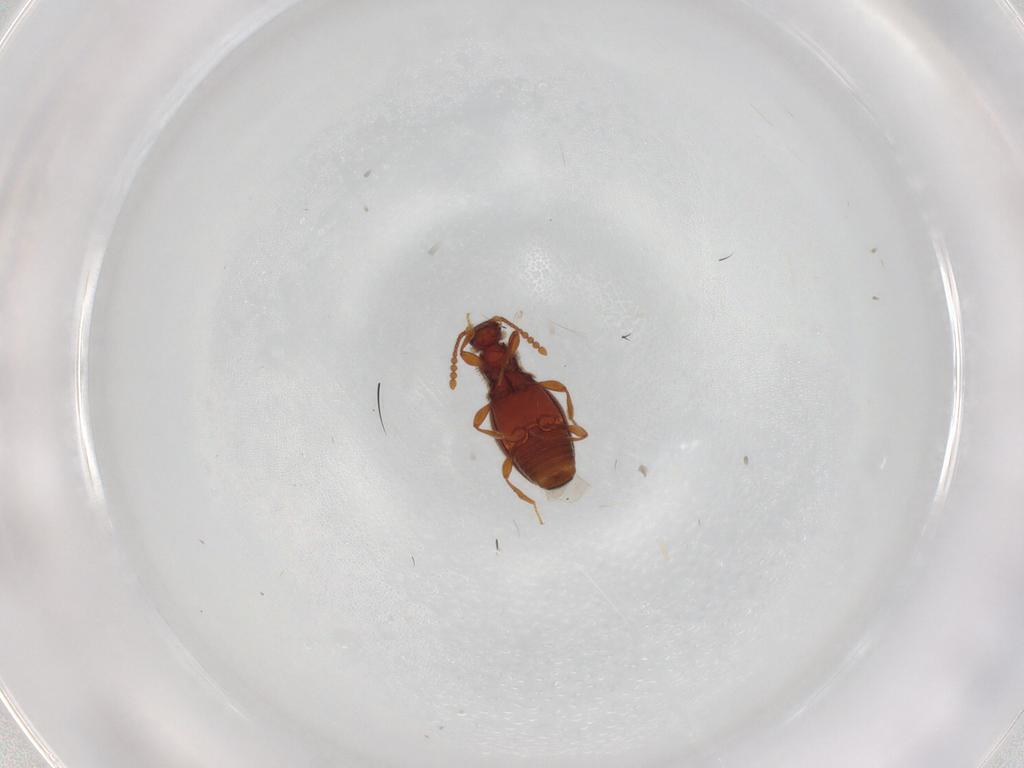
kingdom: Animalia
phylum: Arthropoda
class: Insecta
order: Coleoptera
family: Staphylinidae
